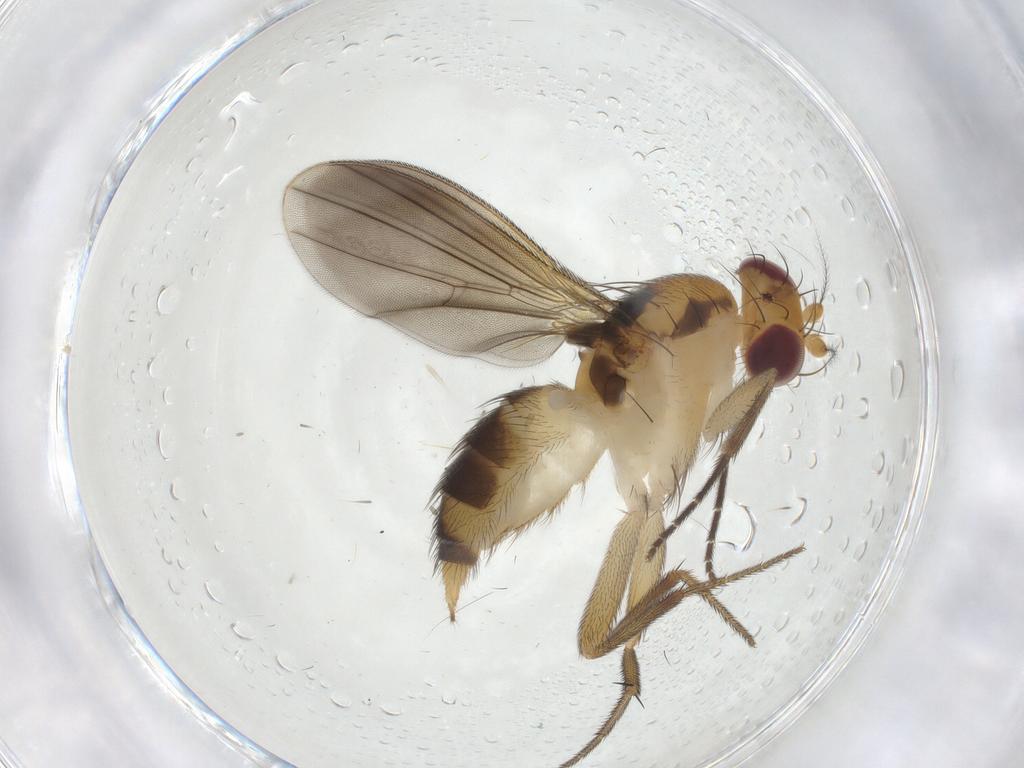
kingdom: Animalia
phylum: Arthropoda
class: Insecta
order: Diptera
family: Clusiidae
